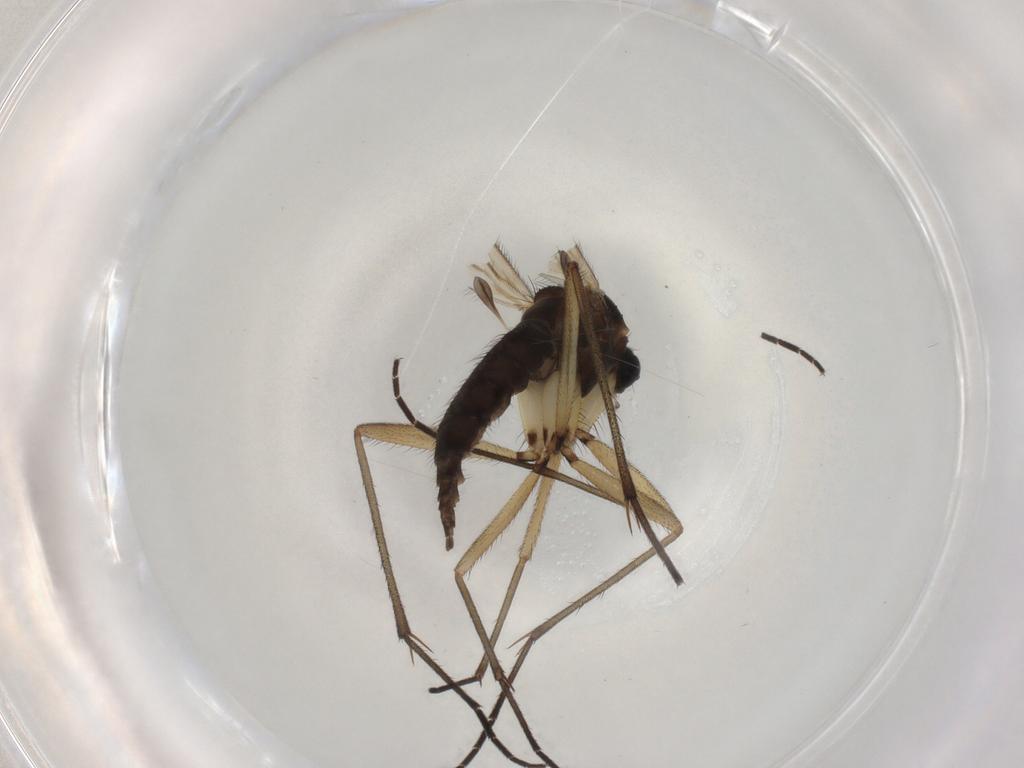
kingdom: Animalia
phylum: Arthropoda
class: Insecta
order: Diptera
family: Sciaridae
